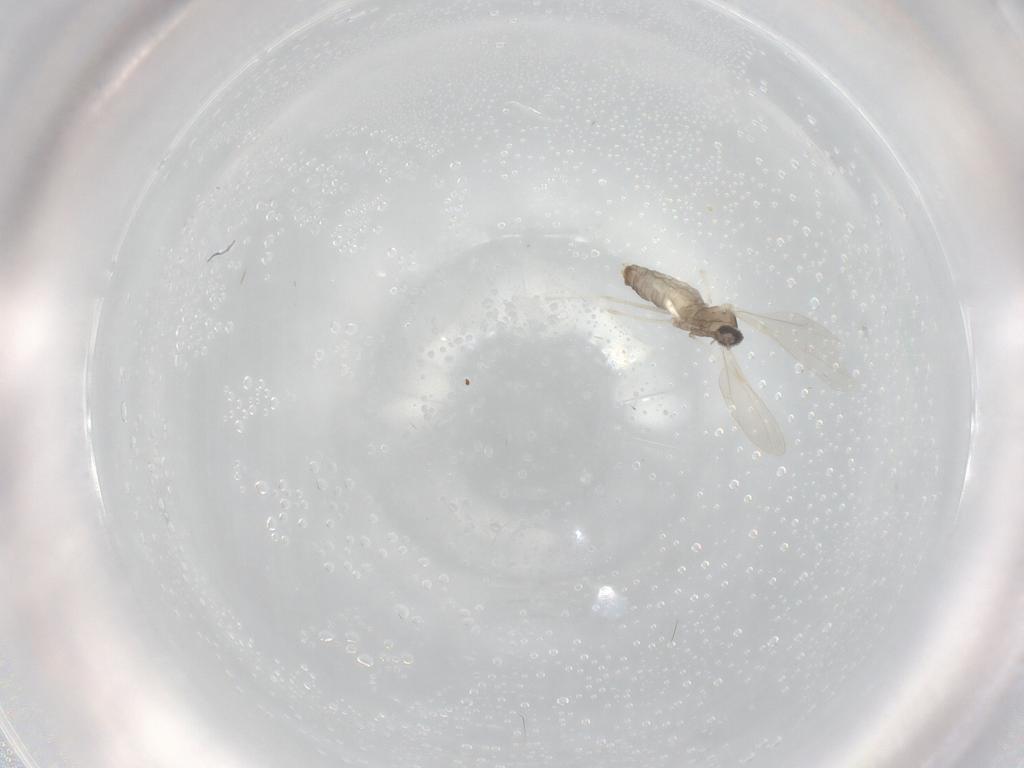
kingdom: Animalia
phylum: Arthropoda
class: Insecta
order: Diptera
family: Cecidomyiidae
